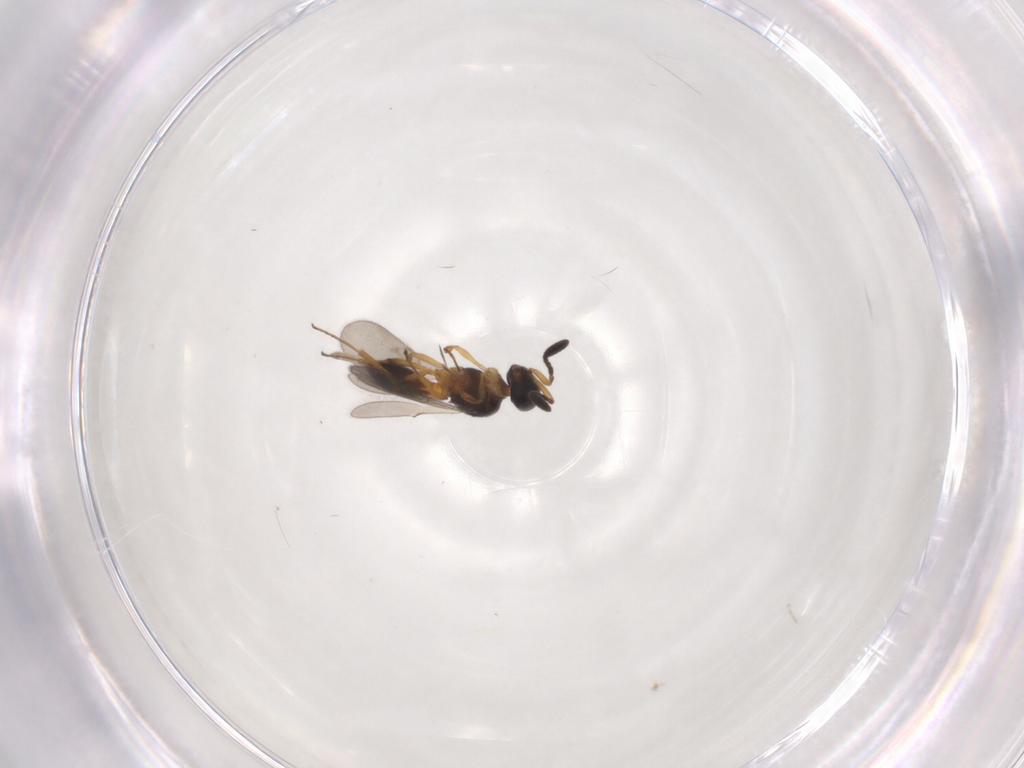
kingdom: Animalia
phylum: Arthropoda
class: Insecta
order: Hymenoptera
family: Scelionidae
